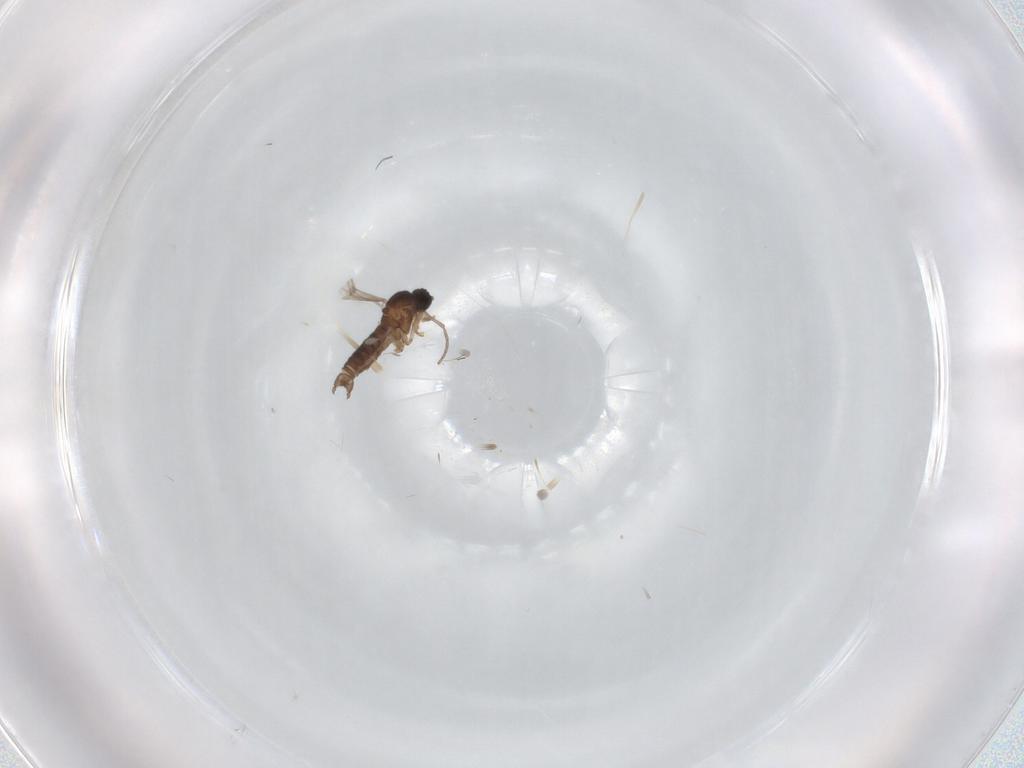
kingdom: Animalia
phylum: Arthropoda
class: Insecta
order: Diptera
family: Sciaridae
